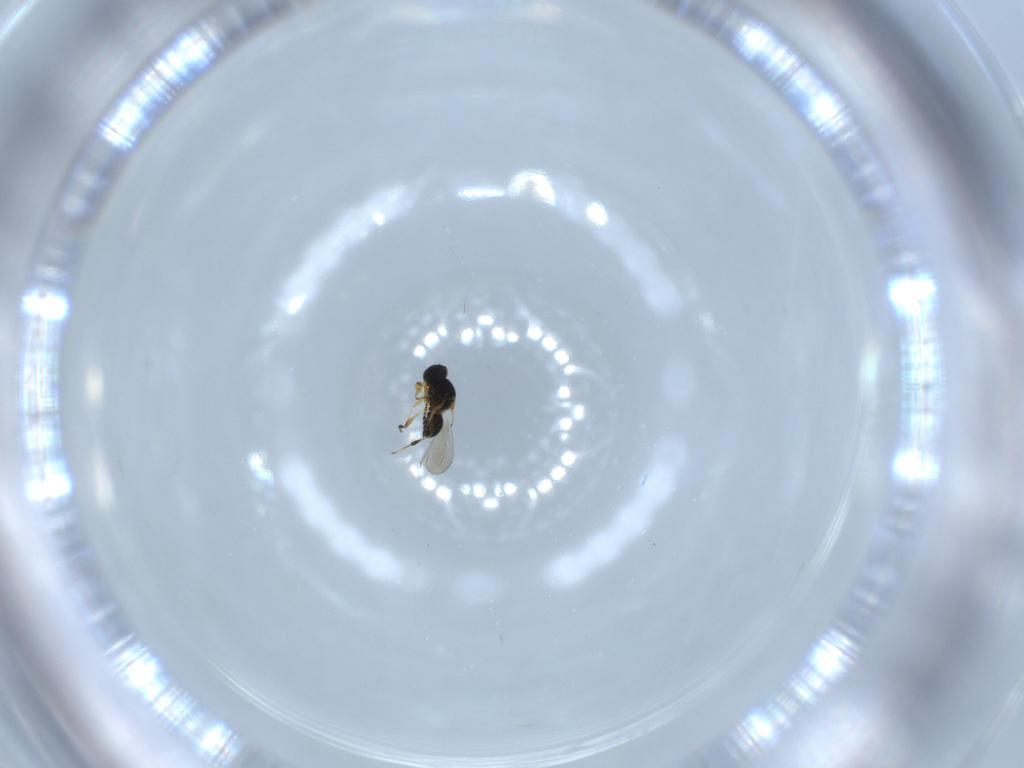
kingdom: Animalia
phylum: Arthropoda
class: Insecta
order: Hymenoptera
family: Platygastridae
